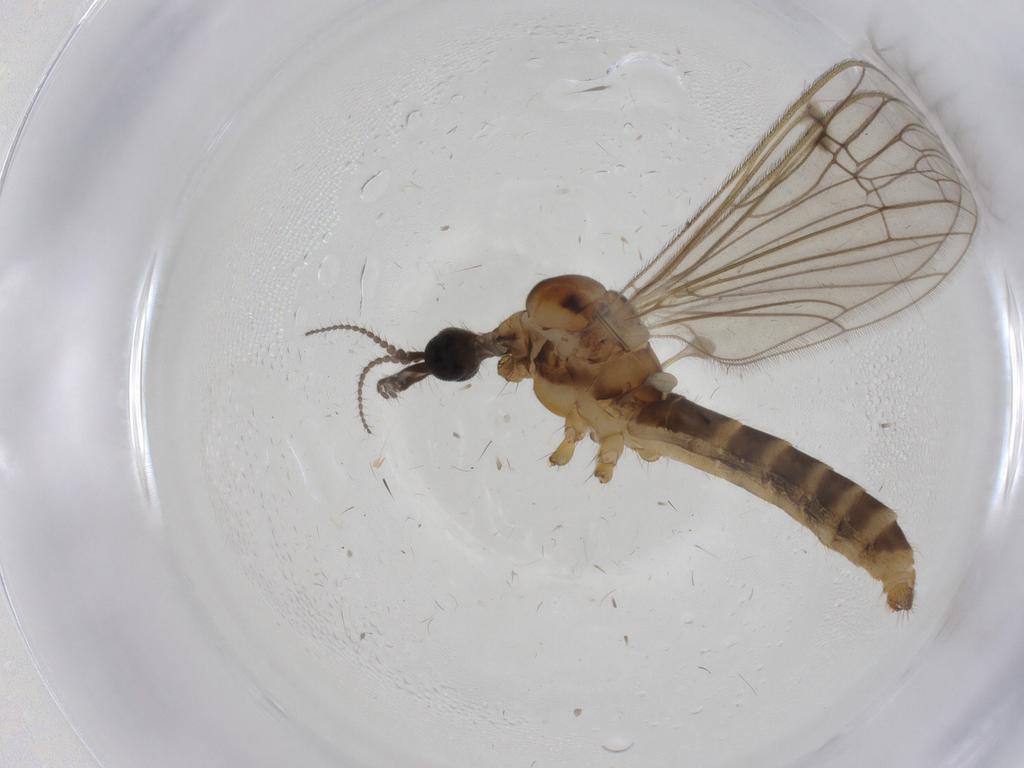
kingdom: Animalia
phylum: Arthropoda
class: Insecta
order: Diptera
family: Limoniidae
